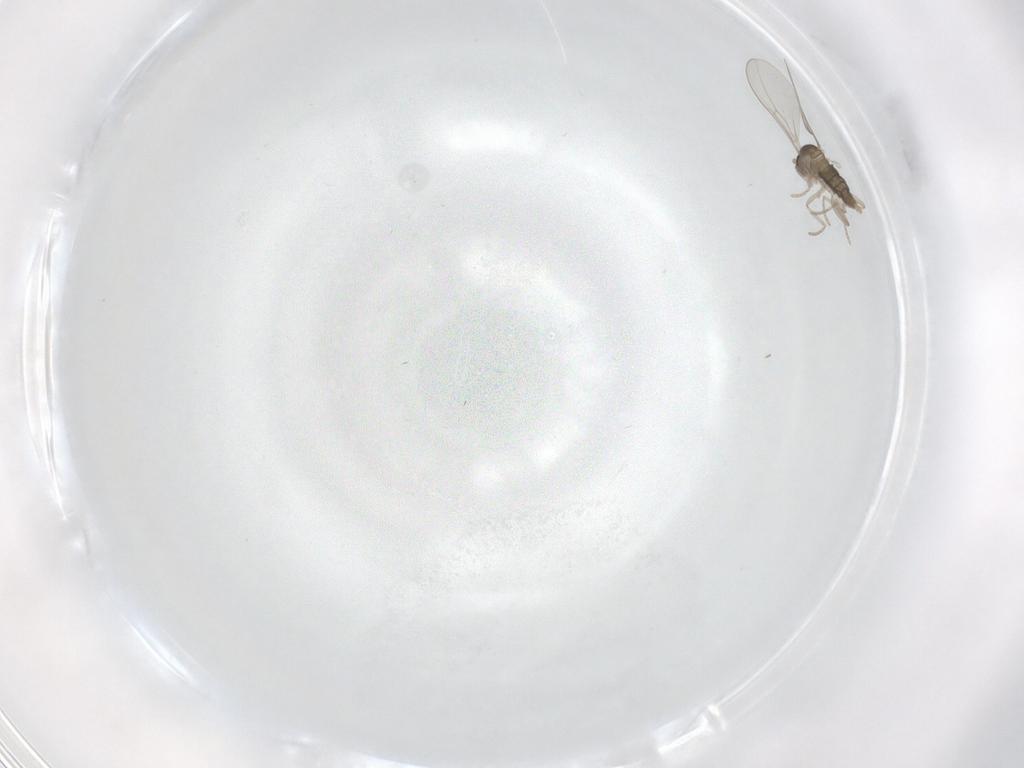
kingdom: Animalia
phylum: Arthropoda
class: Insecta
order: Diptera
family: Cecidomyiidae
